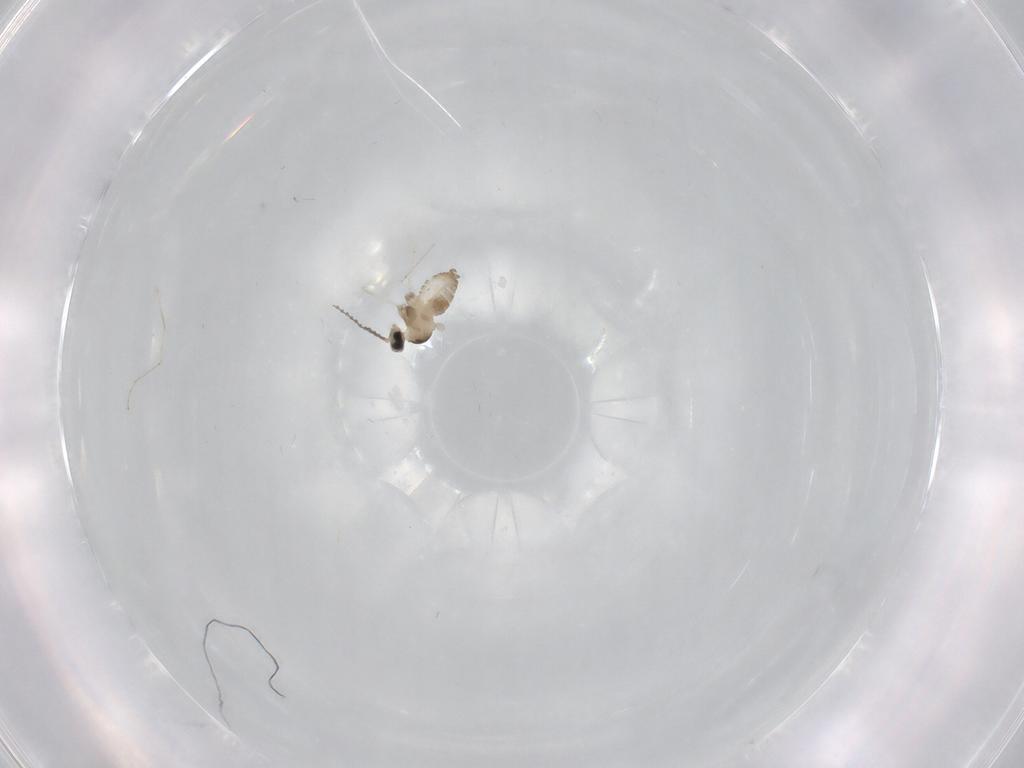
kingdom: Animalia
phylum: Arthropoda
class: Insecta
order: Diptera
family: Cecidomyiidae
